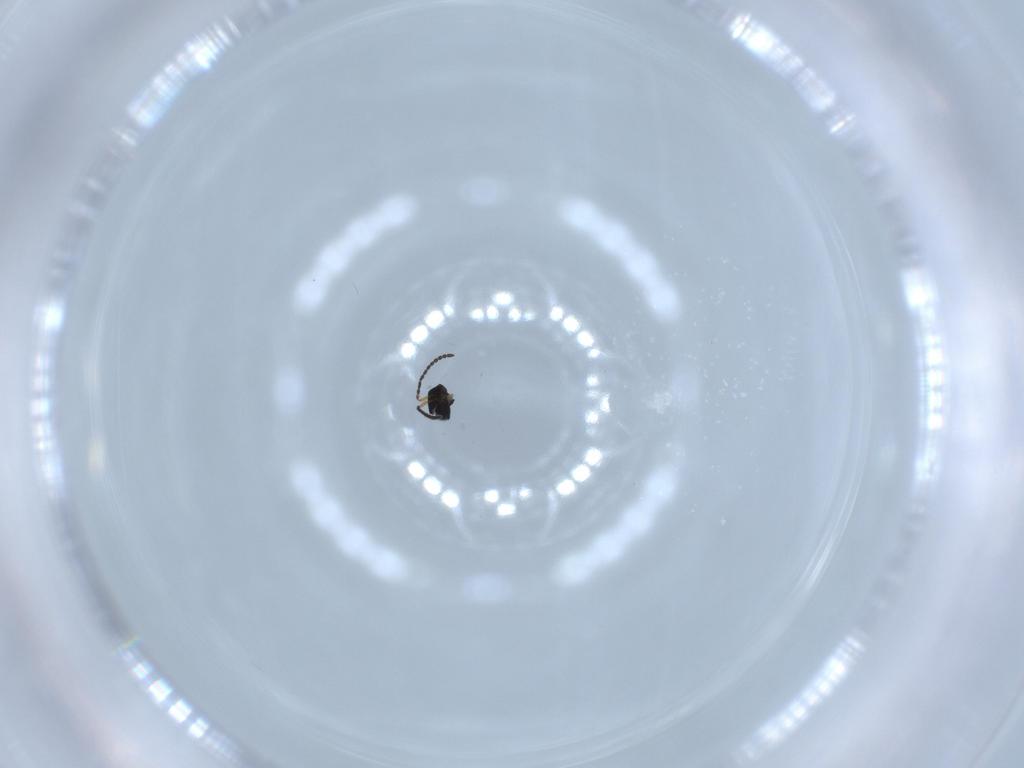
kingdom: Animalia
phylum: Arthropoda
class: Insecta
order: Hymenoptera
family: Scelionidae
